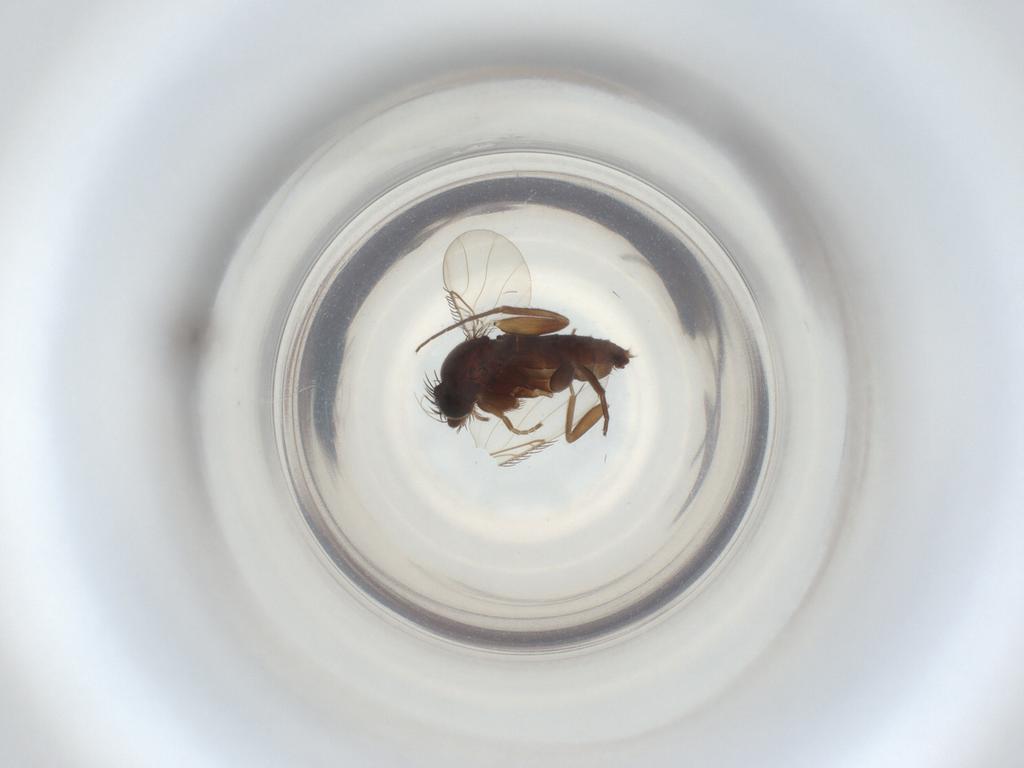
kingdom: Animalia
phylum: Arthropoda
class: Insecta
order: Diptera
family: Phoridae
